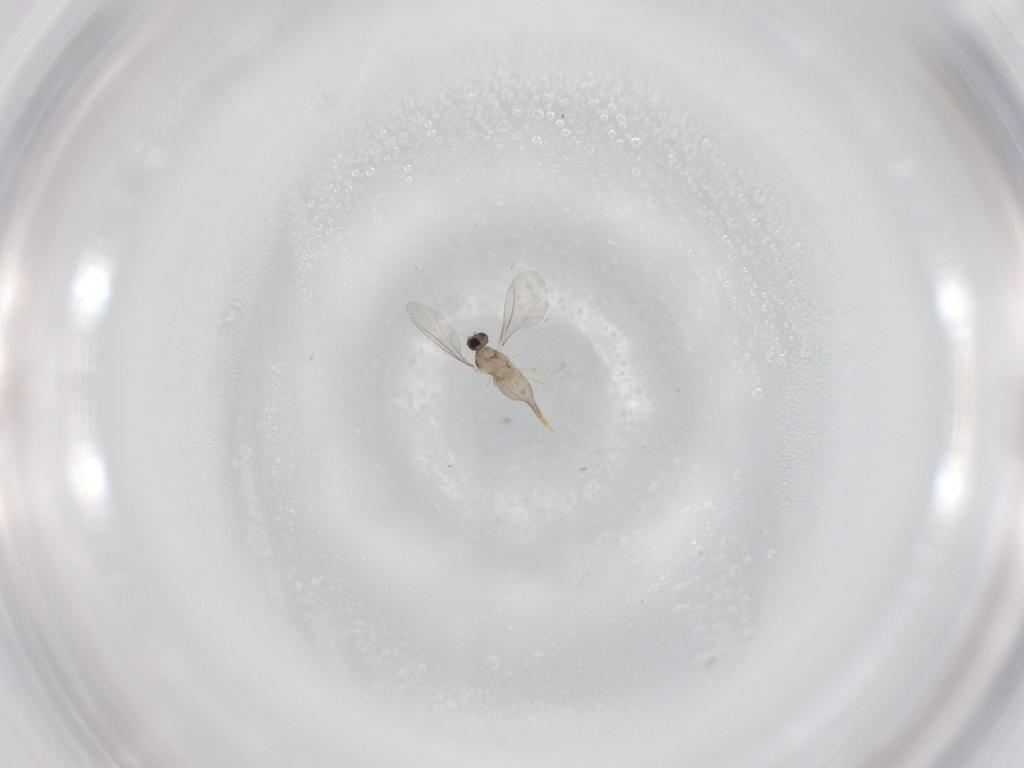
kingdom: Animalia
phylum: Arthropoda
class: Insecta
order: Diptera
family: Cecidomyiidae
